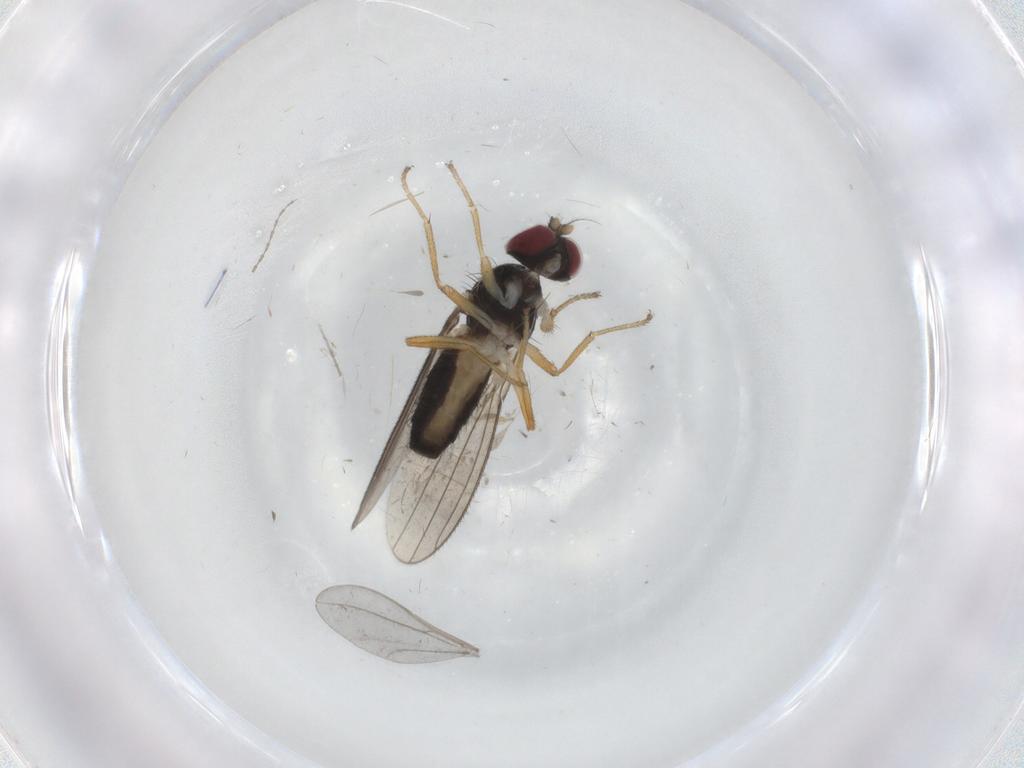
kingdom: Animalia
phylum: Arthropoda
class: Insecta
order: Diptera
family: Anthomyzidae
